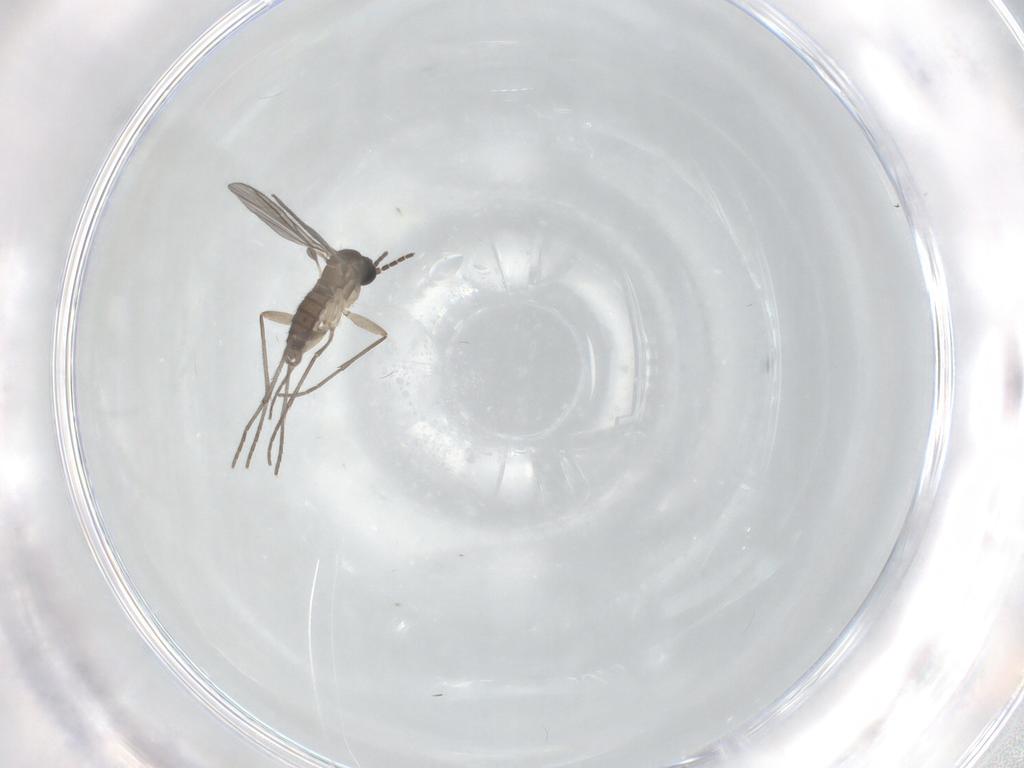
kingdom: Animalia
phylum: Arthropoda
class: Insecta
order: Diptera
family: Sciaridae
